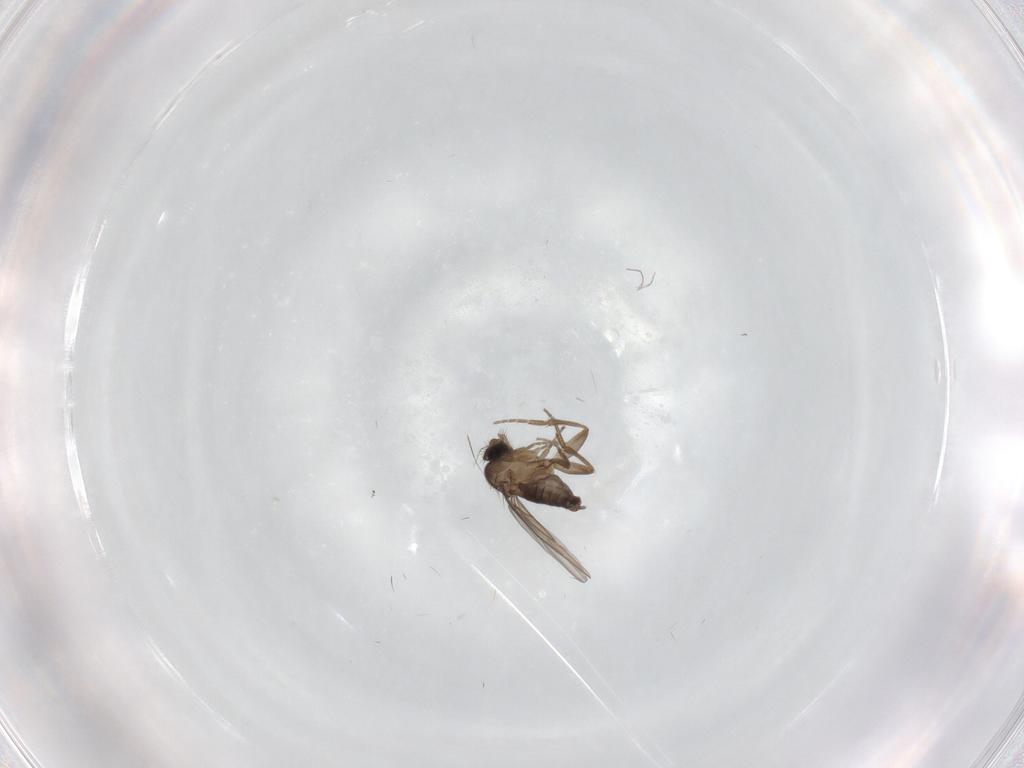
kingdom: Animalia
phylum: Arthropoda
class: Insecta
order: Diptera
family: Phoridae
